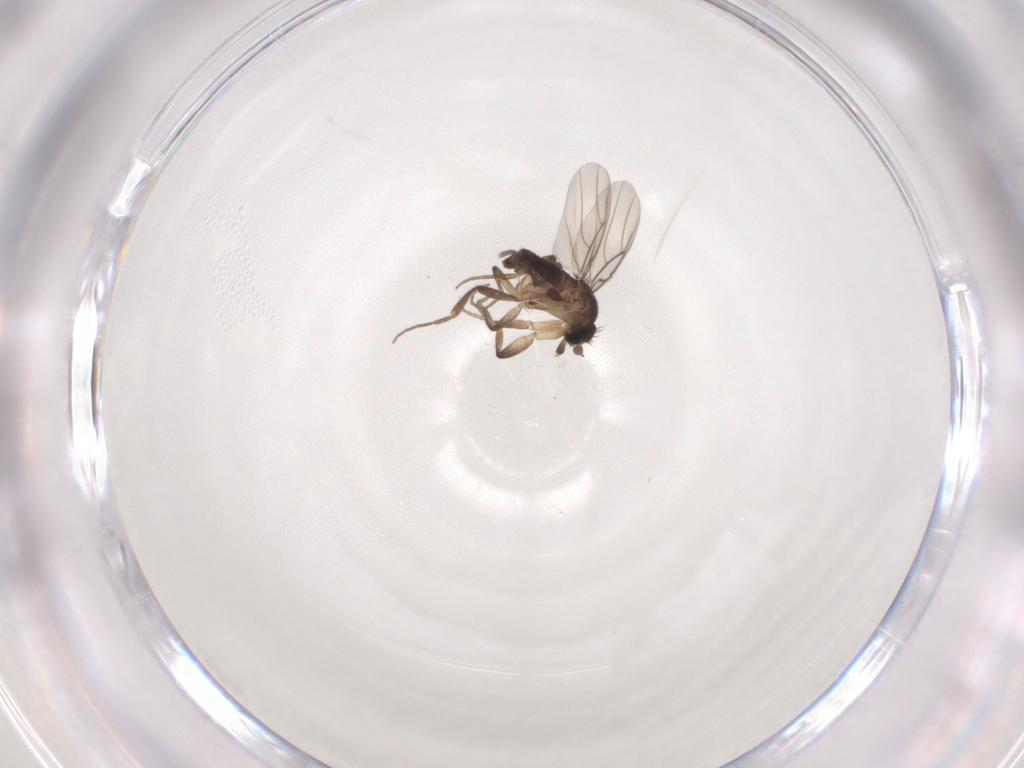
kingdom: Animalia
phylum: Arthropoda
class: Insecta
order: Diptera
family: Phoridae
